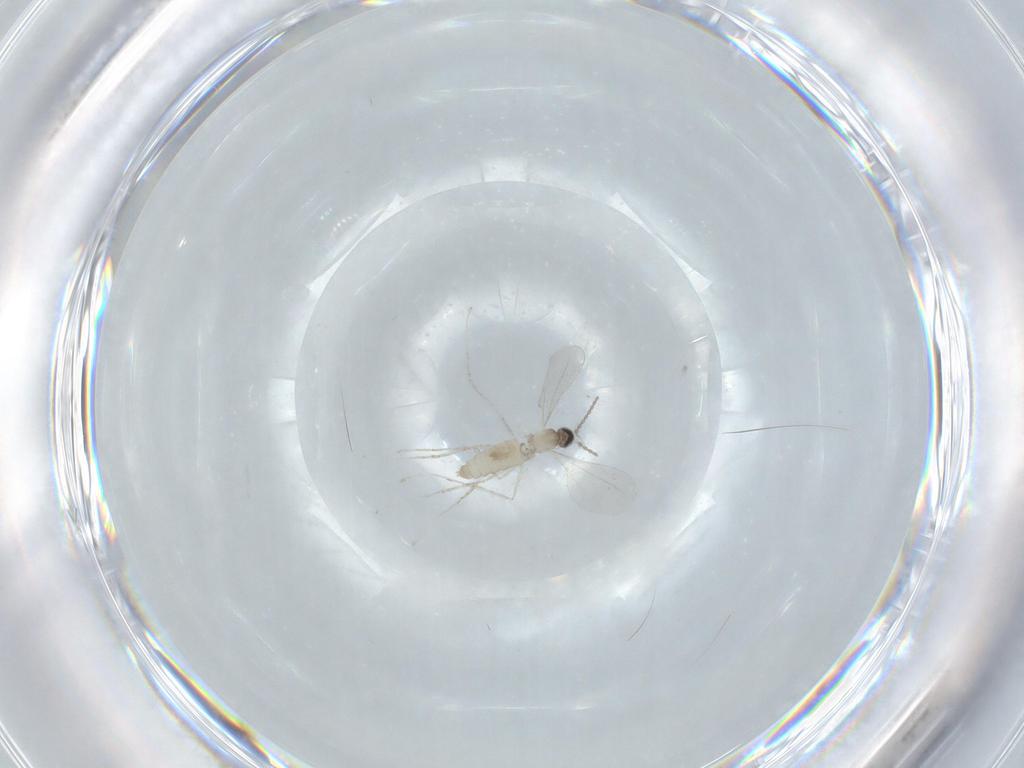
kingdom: Animalia
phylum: Arthropoda
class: Insecta
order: Diptera
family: Cecidomyiidae
